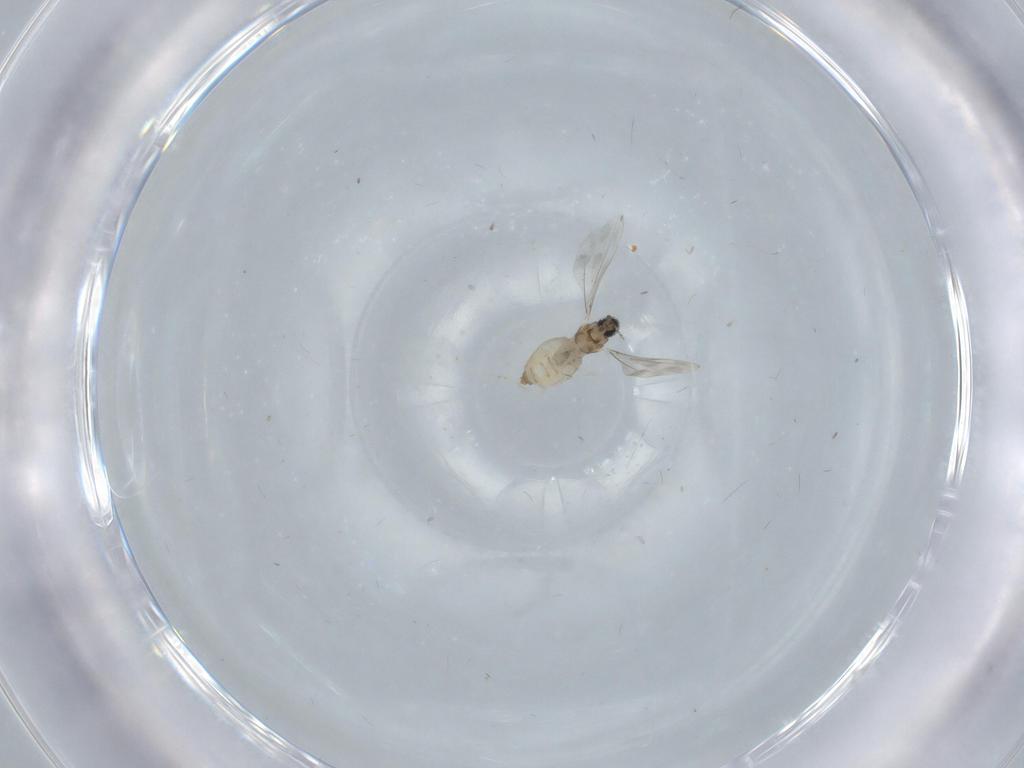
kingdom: Animalia
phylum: Arthropoda
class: Insecta
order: Diptera
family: Cecidomyiidae
